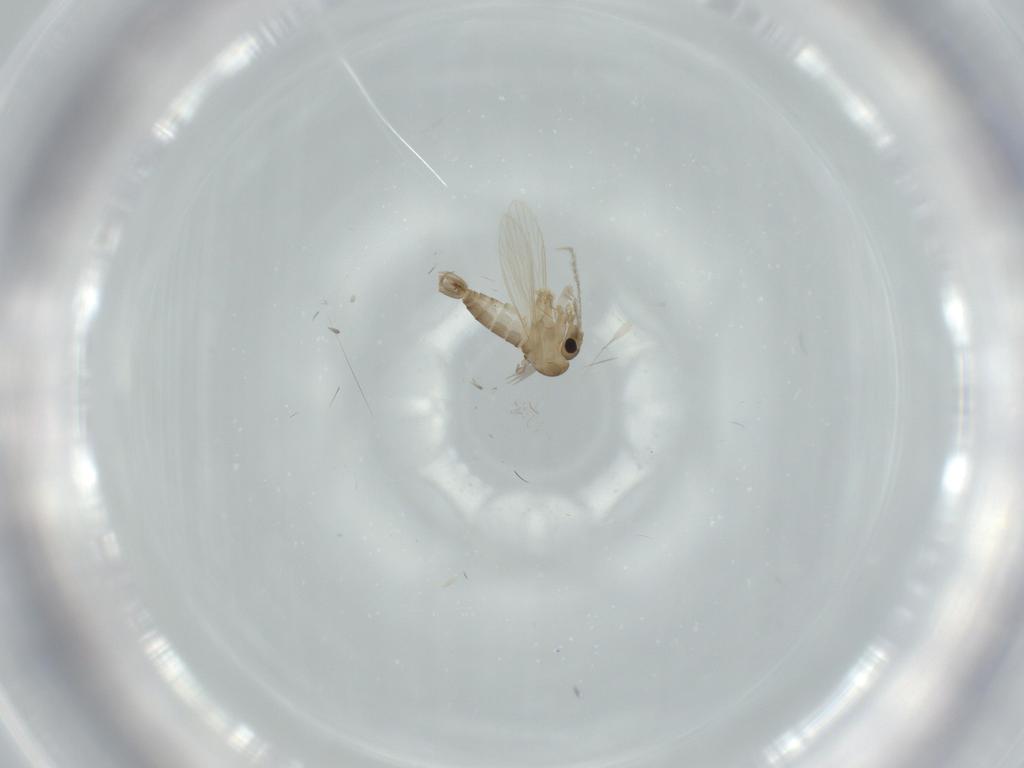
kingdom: Animalia
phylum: Arthropoda
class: Insecta
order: Diptera
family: Psychodidae
